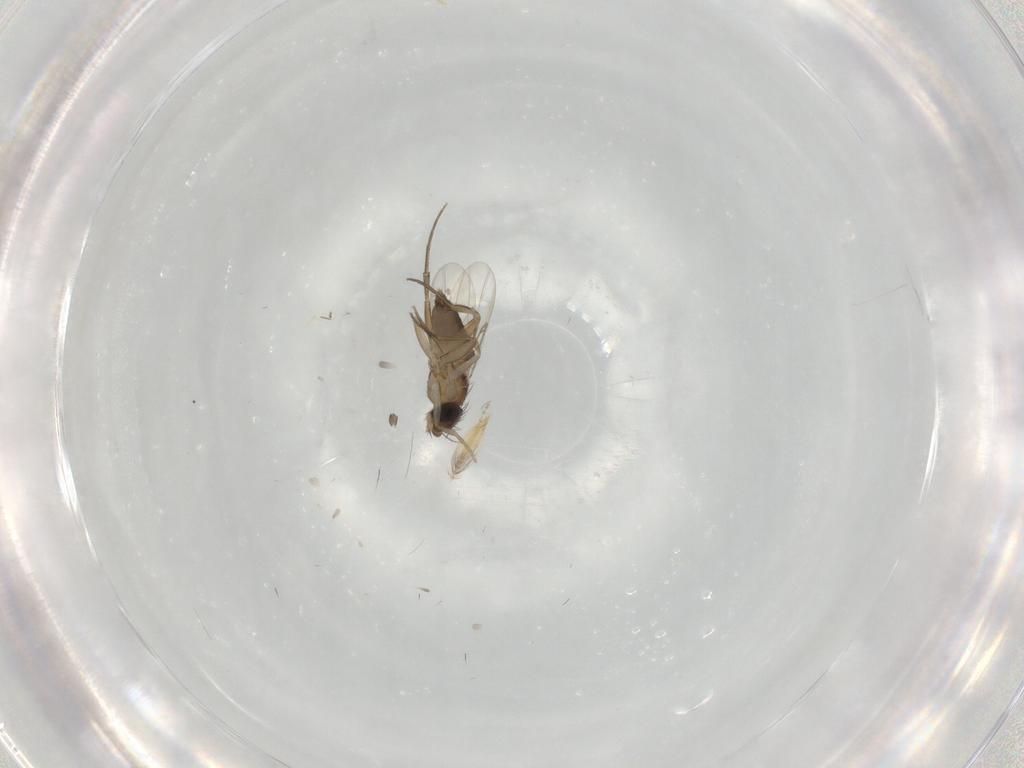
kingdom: Animalia
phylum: Arthropoda
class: Insecta
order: Diptera
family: Phoridae
